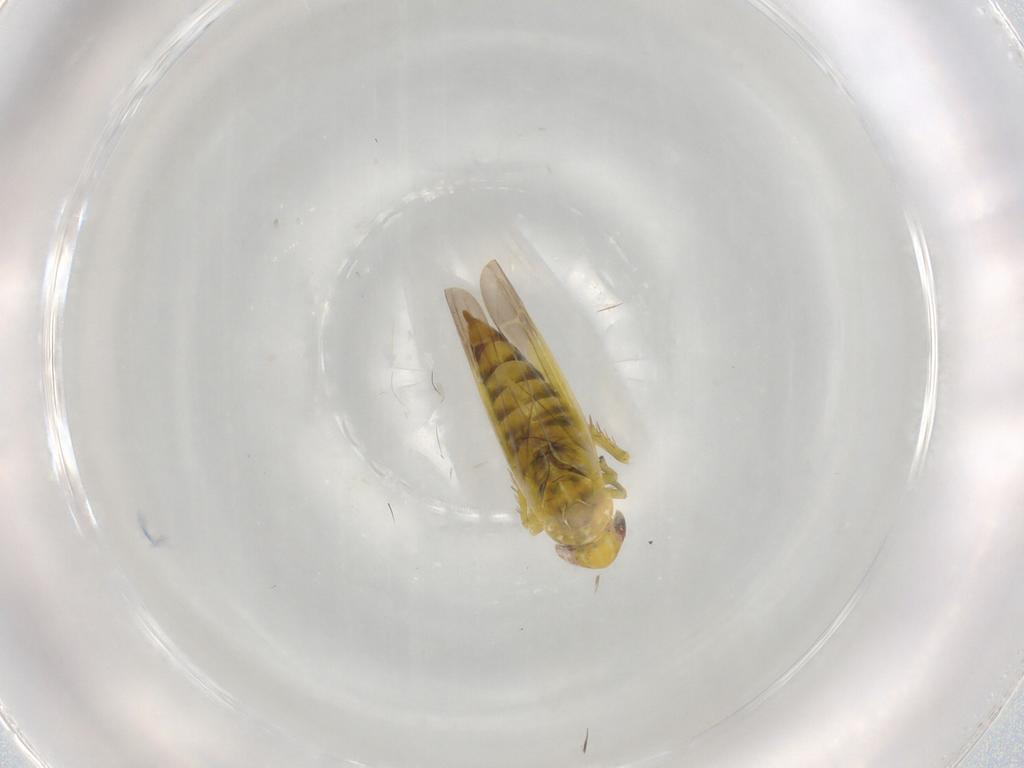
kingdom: Animalia
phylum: Arthropoda
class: Insecta
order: Hemiptera
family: Cicadellidae
